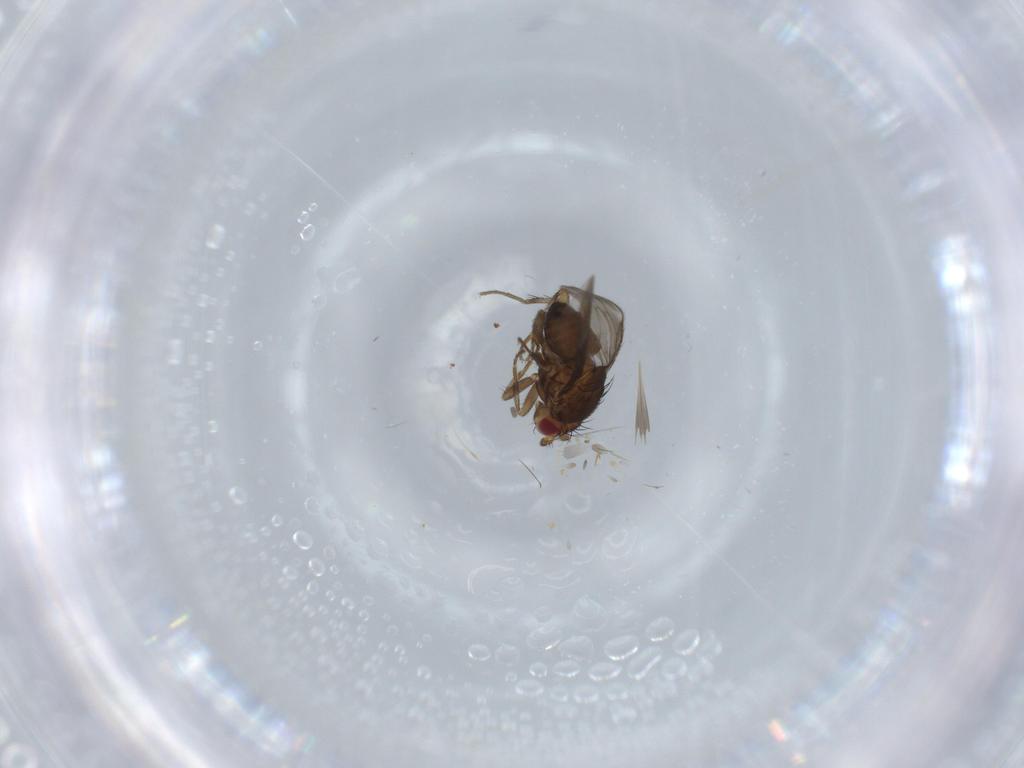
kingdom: Animalia
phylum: Arthropoda
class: Insecta
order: Diptera
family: Sphaeroceridae
